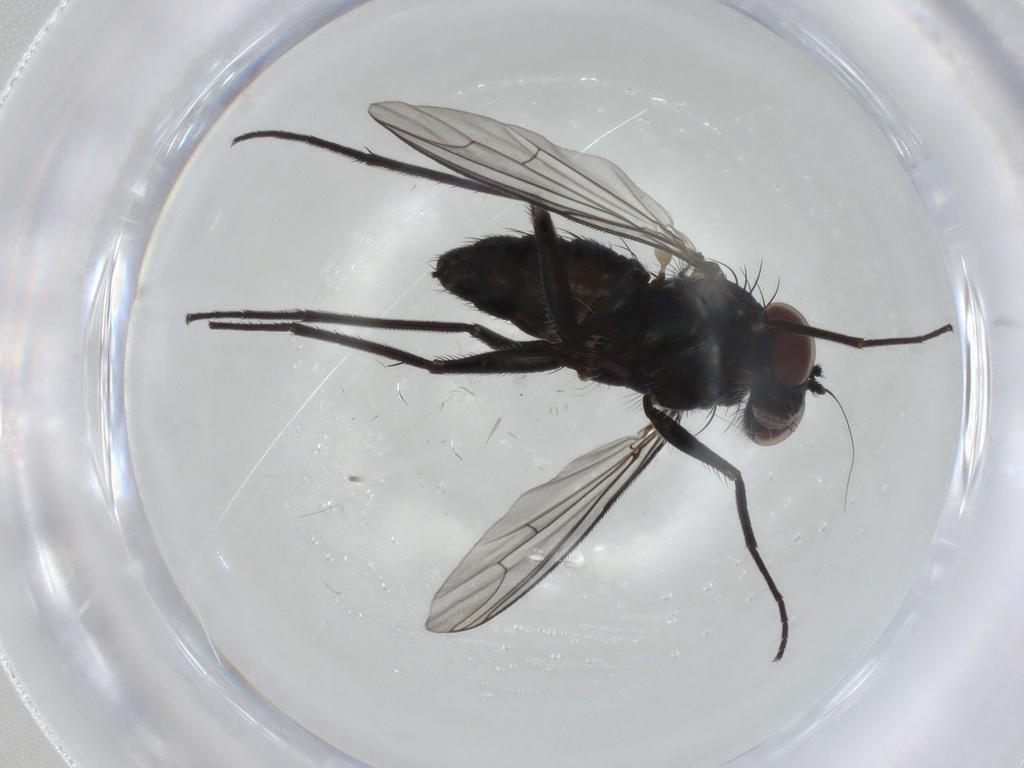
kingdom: Animalia
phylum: Arthropoda
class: Insecta
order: Diptera
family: Dolichopodidae
